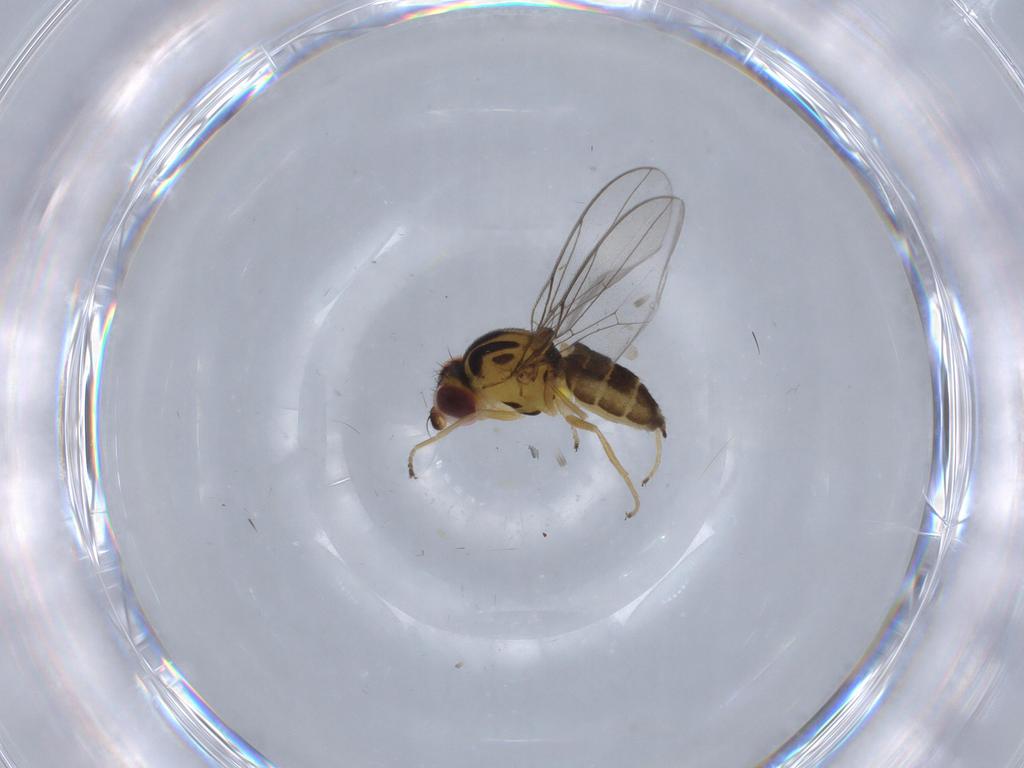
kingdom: Animalia
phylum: Arthropoda
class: Insecta
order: Diptera
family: Chloropidae
